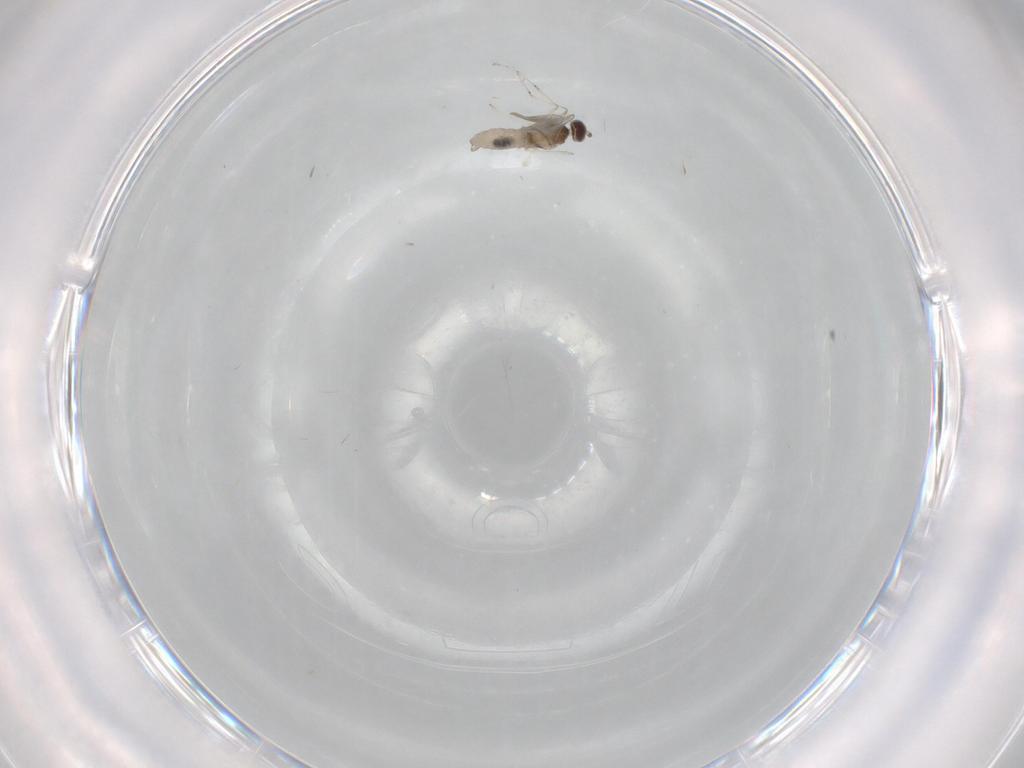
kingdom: Animalia
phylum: Arthropoda
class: Insecta
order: Diptera
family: Cecidomyiidae
